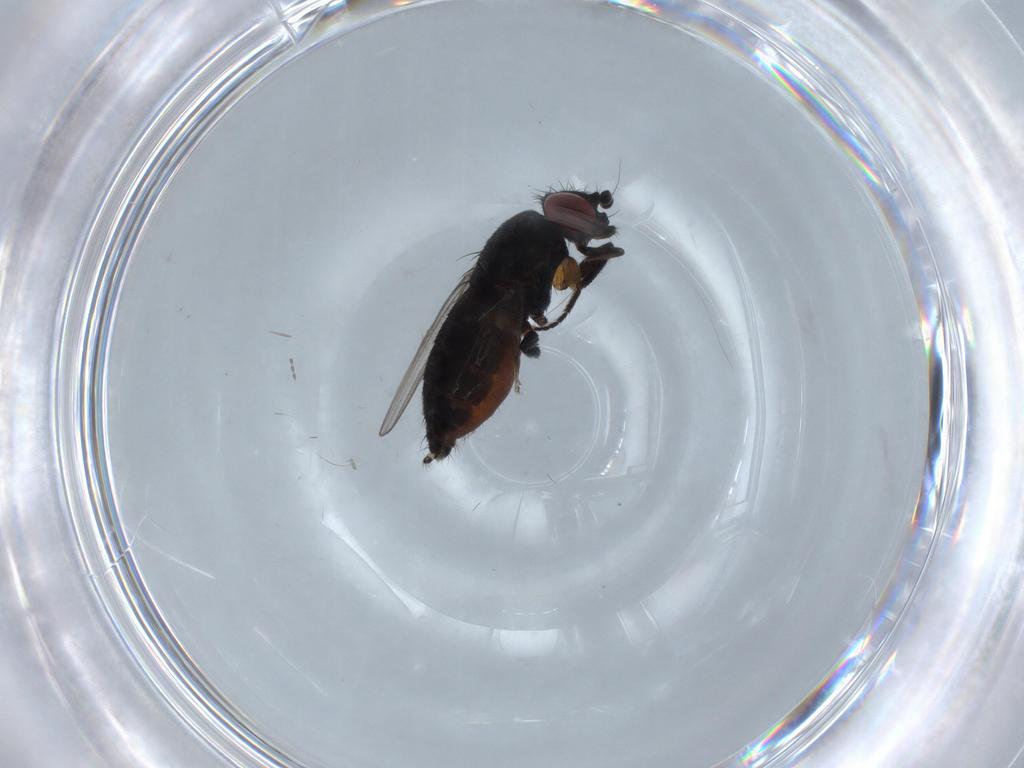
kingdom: Animalia
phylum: Arthropoda
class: Insecta
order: Diptera
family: Milichiidae
